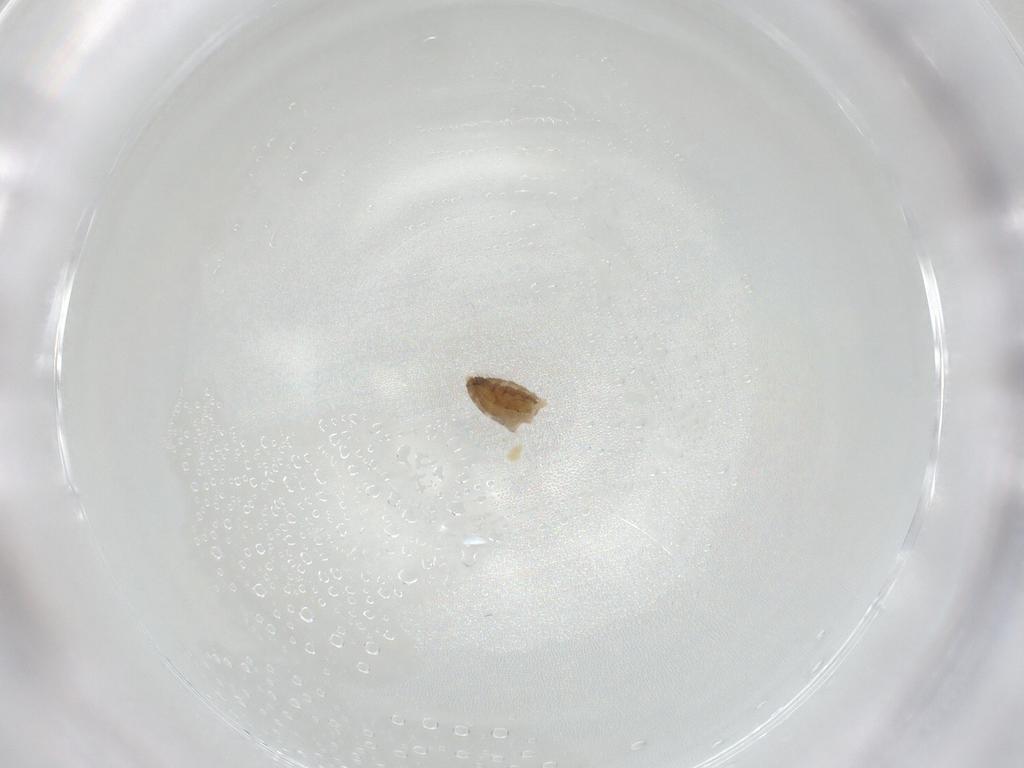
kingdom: Animalia
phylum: Arthropoda
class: Insecta
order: Diptera
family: Chironomidae
